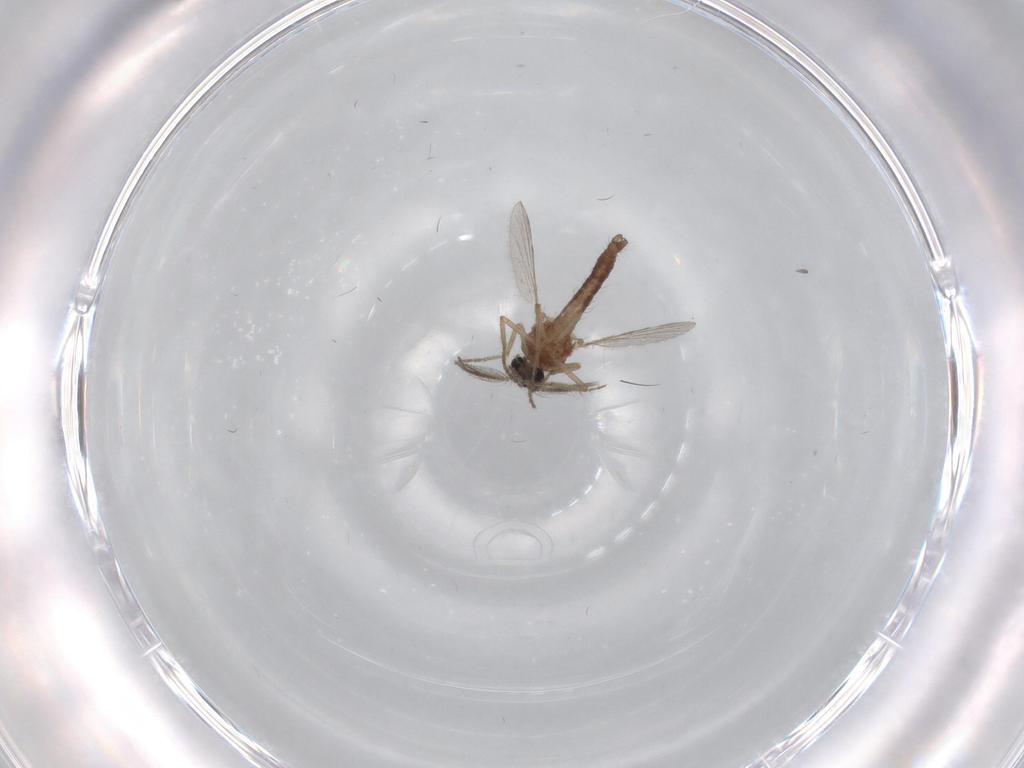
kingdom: Animalia
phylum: Arthropoda
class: Insecta
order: Diptera
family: Ceratopogonidae
